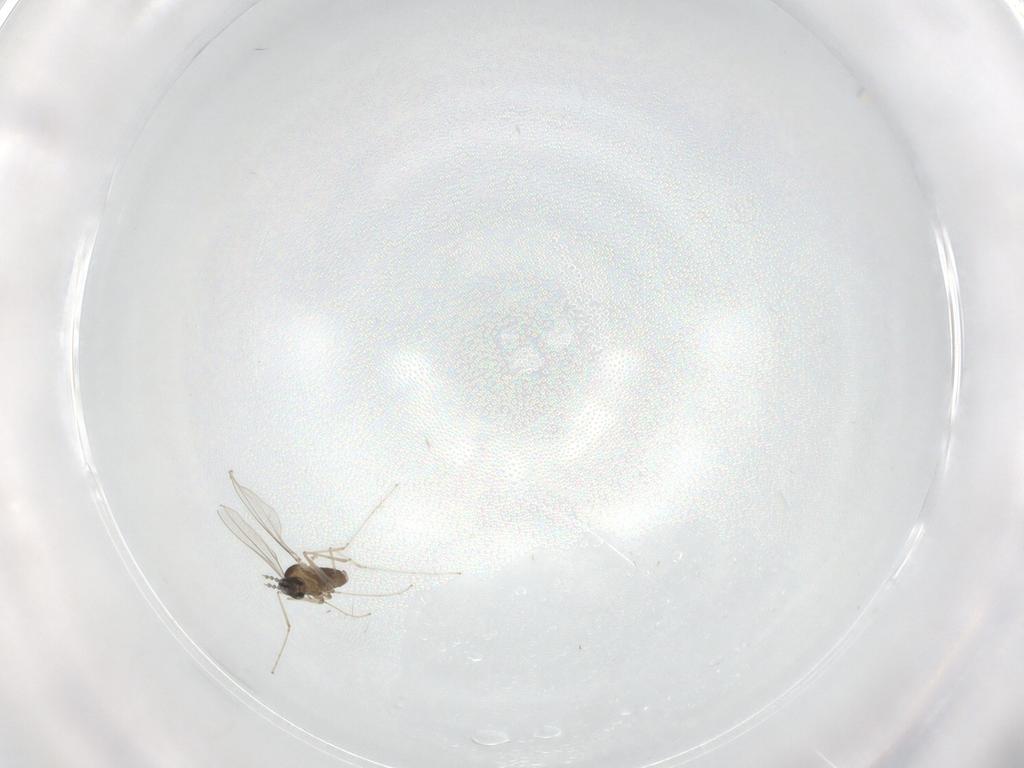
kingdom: Animalia
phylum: Arthropoda
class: Insecta
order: Diptera
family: Cecidomyiidae
